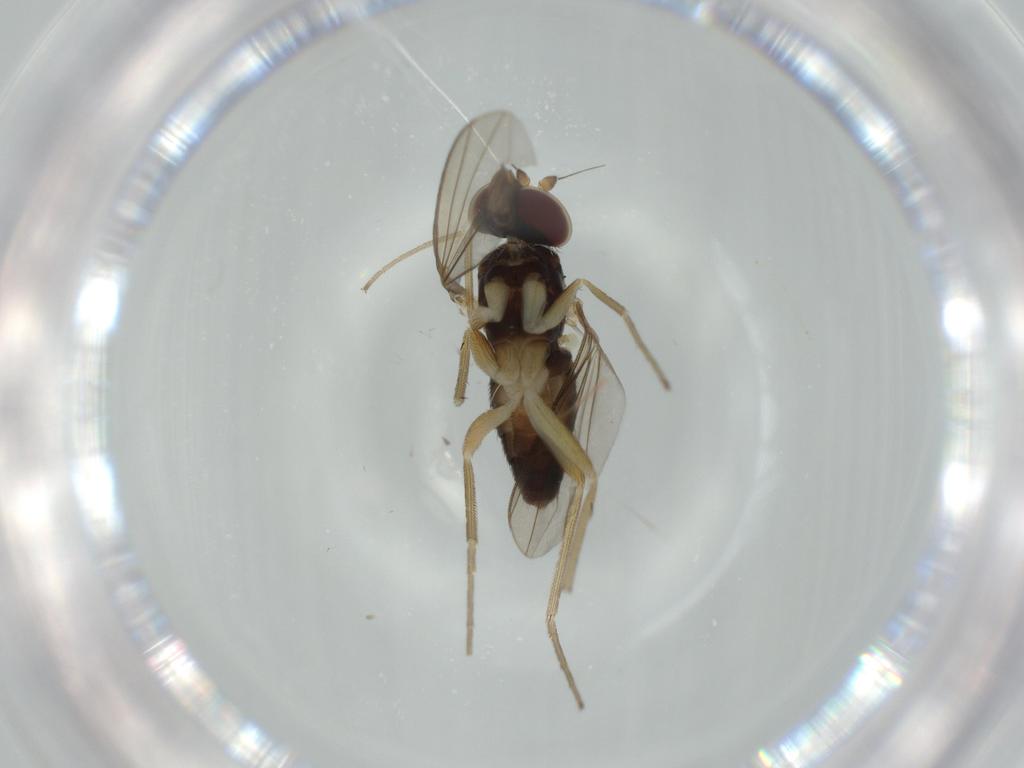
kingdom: Animalia
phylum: Arthropoda
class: Insecta
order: Diptera
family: Dolichopodidae
